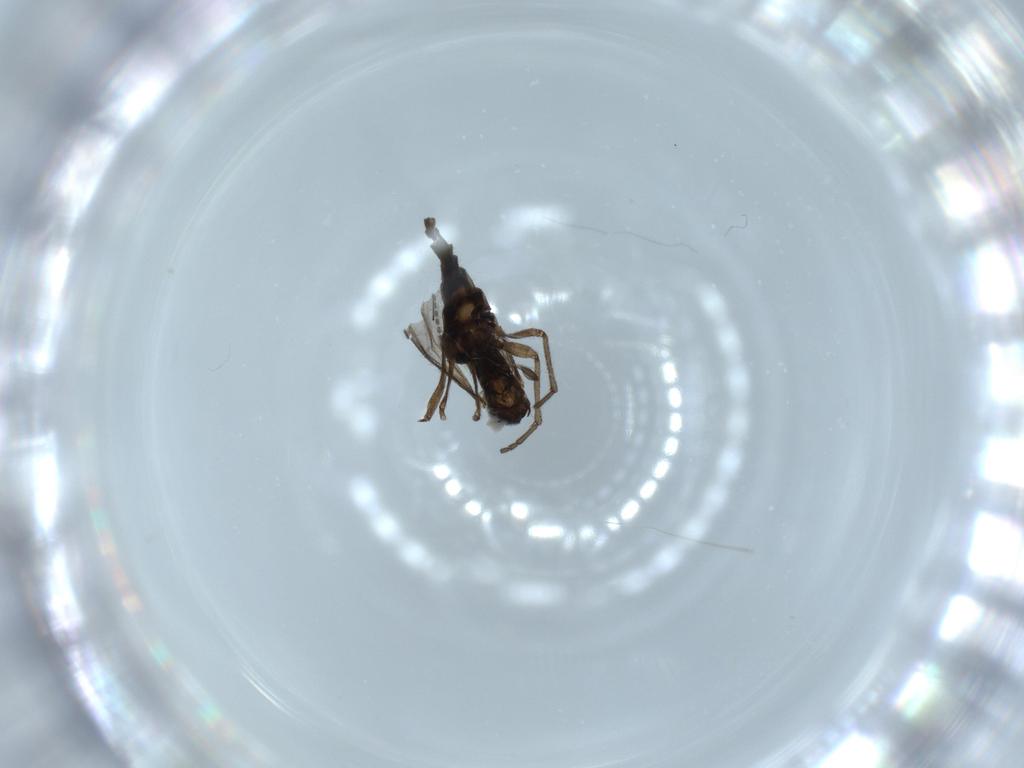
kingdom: Animalia
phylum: Arthropoda
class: Insecta
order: Diptera
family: Sciaridae
